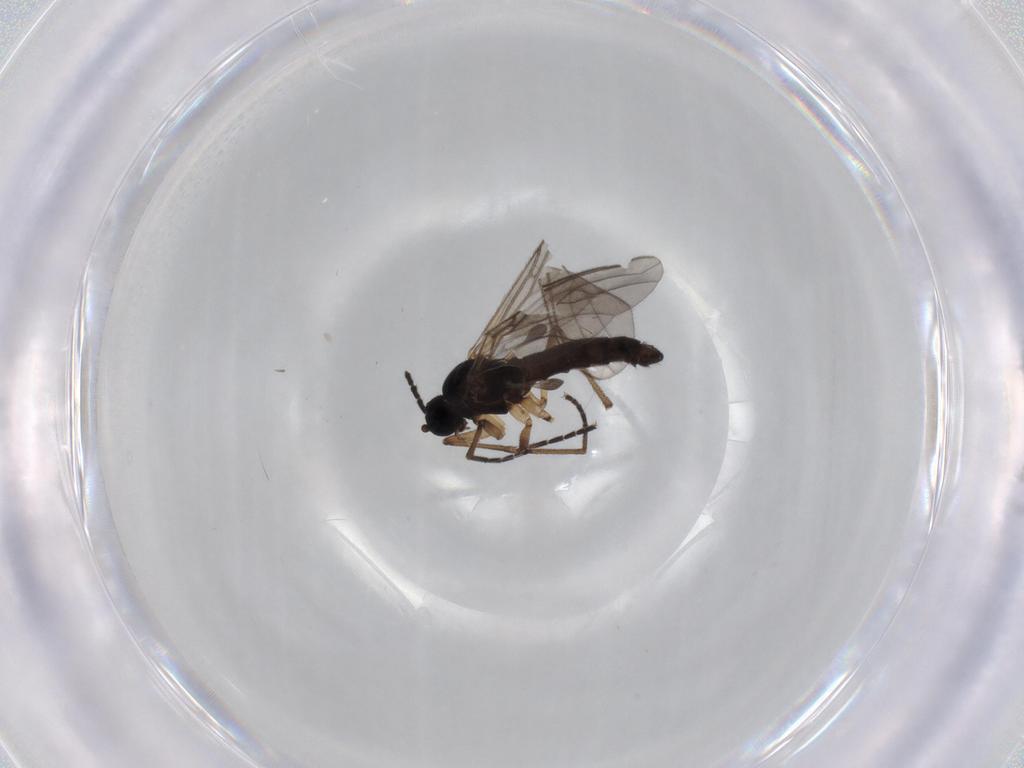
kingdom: Animalia
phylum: Arthropoda
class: Insecta
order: Diptera
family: Sciaridae
